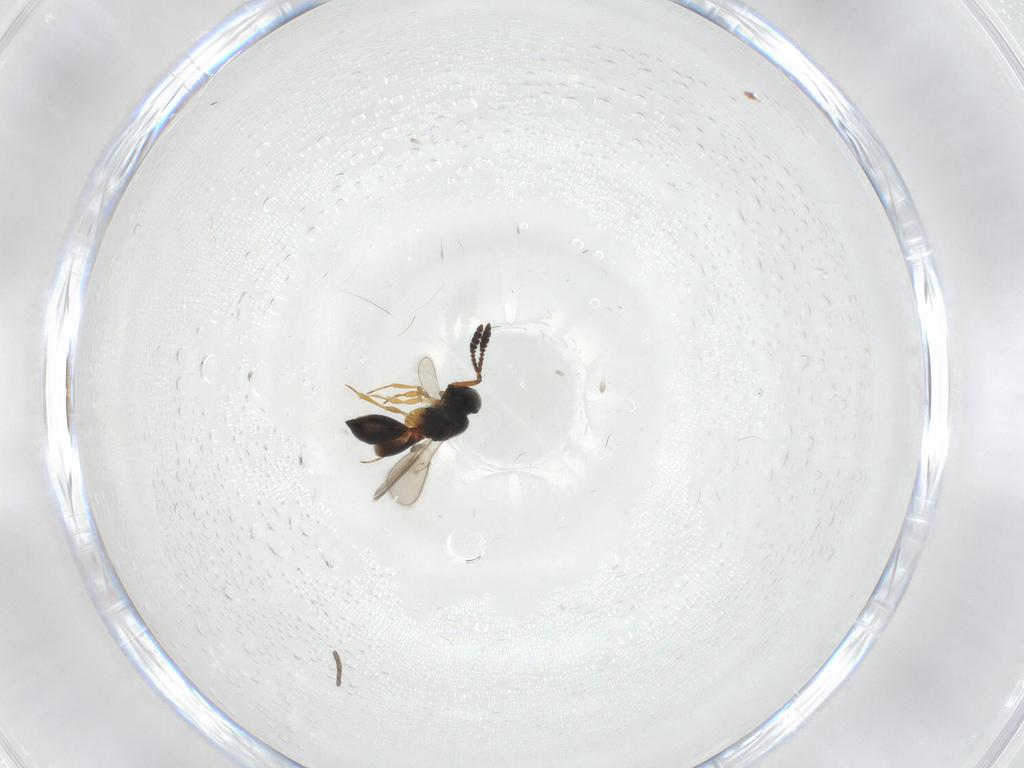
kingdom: Animalia
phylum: Arthropoda
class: Insecta
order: Hymenoptera
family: Scelionidae
